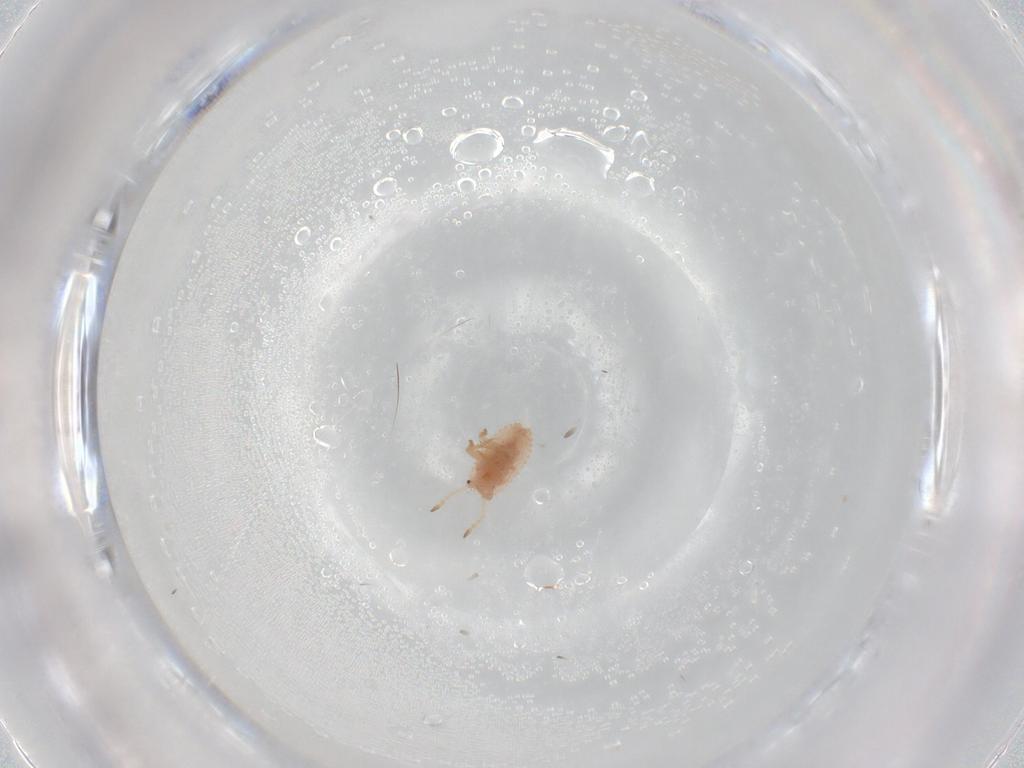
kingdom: Animalia
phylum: Arthropoda
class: Insecta
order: Hemiptera
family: Coccoidea_incertae_sedis
